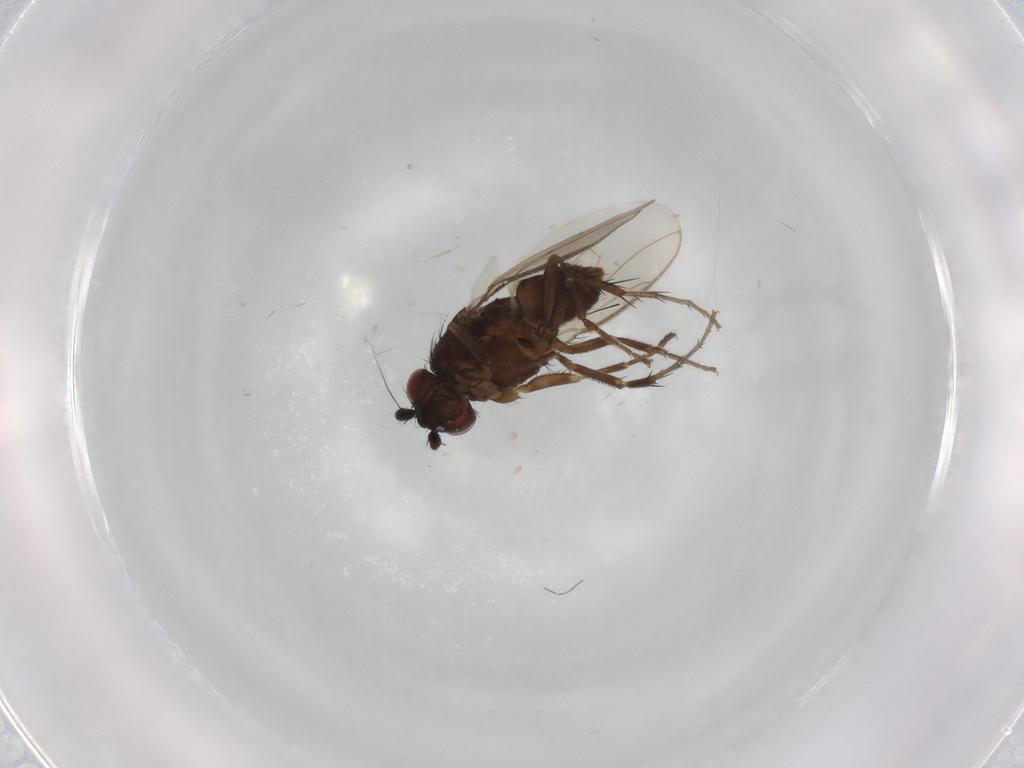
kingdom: Animalia
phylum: Arthropoda
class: Insecta
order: Diptera
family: Sphaeroceridae
